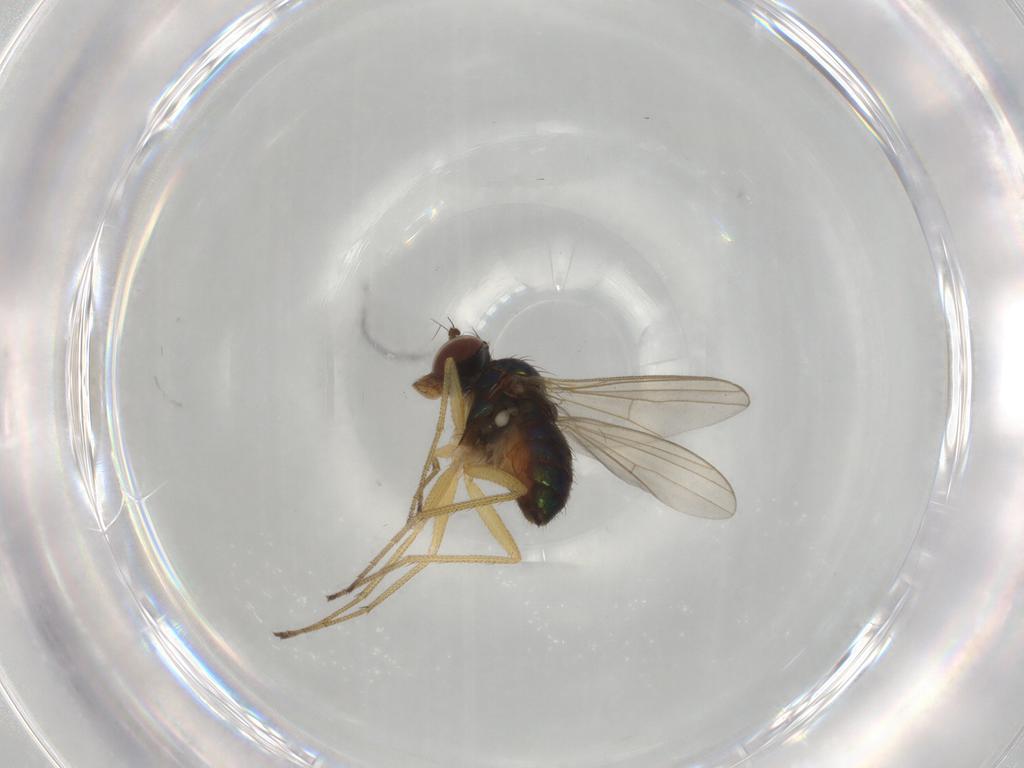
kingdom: Animalia
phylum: Arthropoda
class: Insecta
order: Diptera
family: Dolichopodidae
